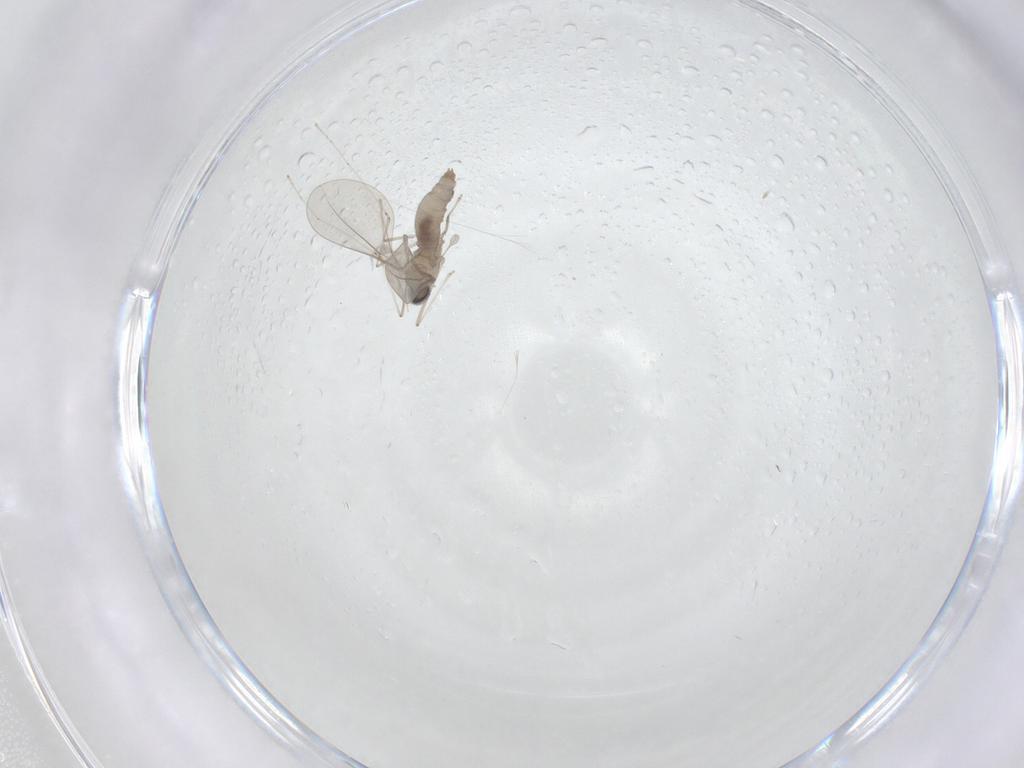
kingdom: Animalia
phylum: Arthropoda
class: Insecta
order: Diptera
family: Cecidomyiidae
